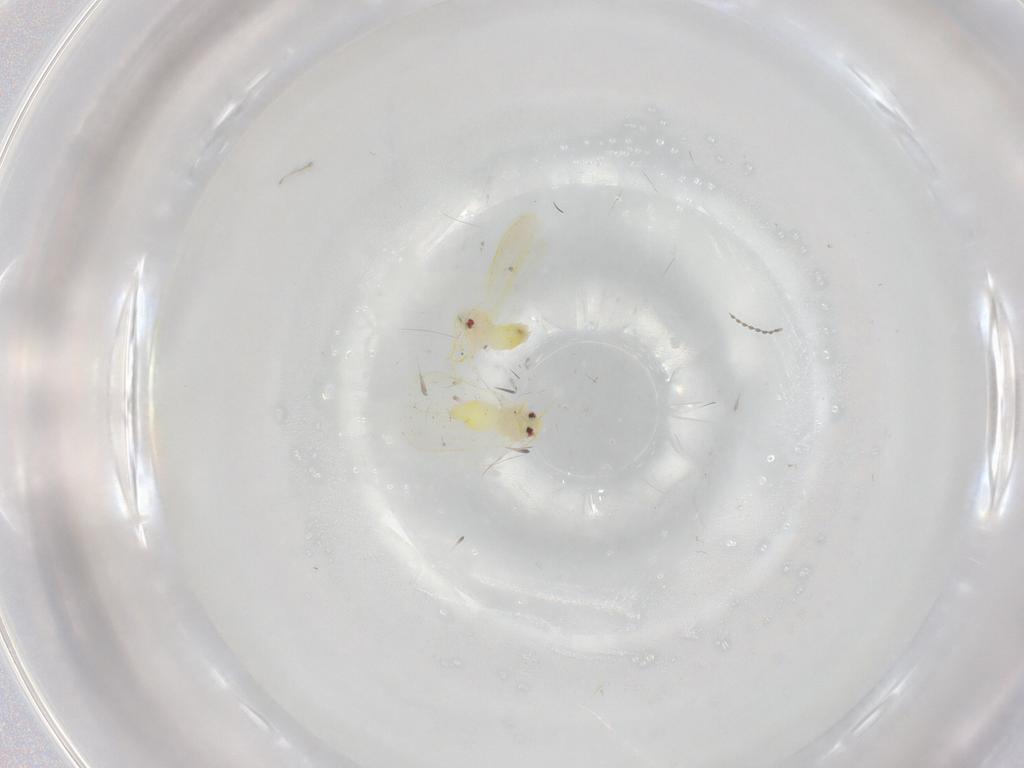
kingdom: Animalia
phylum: Arthropoda
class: Insecta
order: Hemiptera
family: Aleyrodidae
